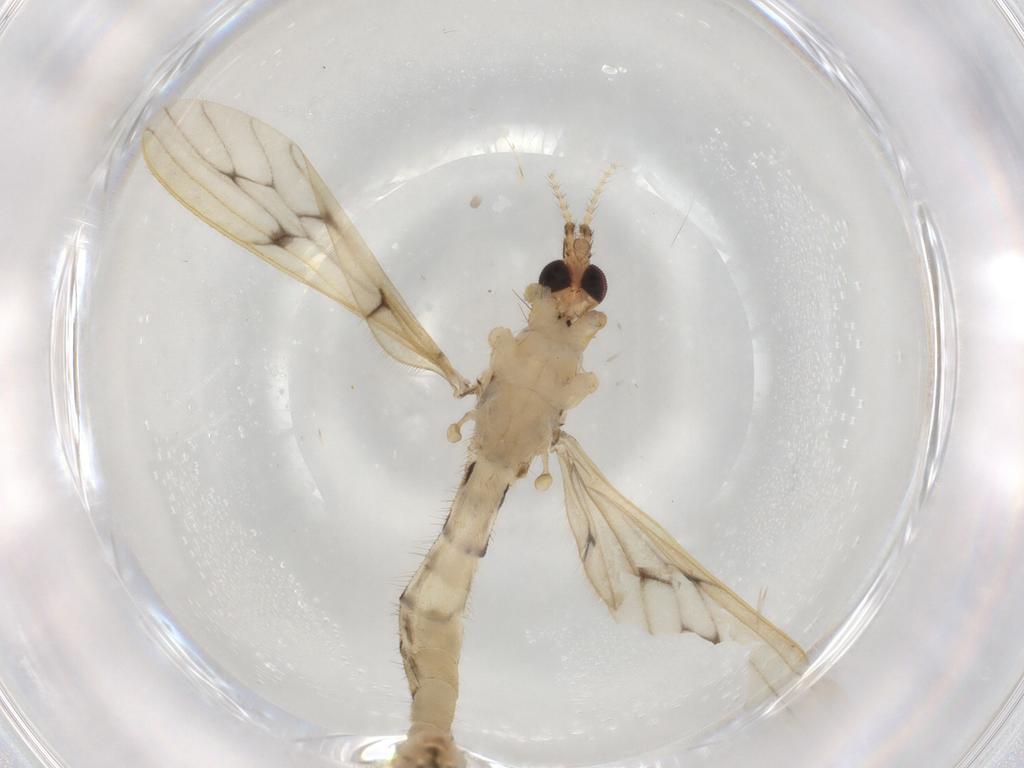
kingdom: Animalia
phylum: Arthropoda
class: Insecta
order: Diptera
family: Limoniidae
